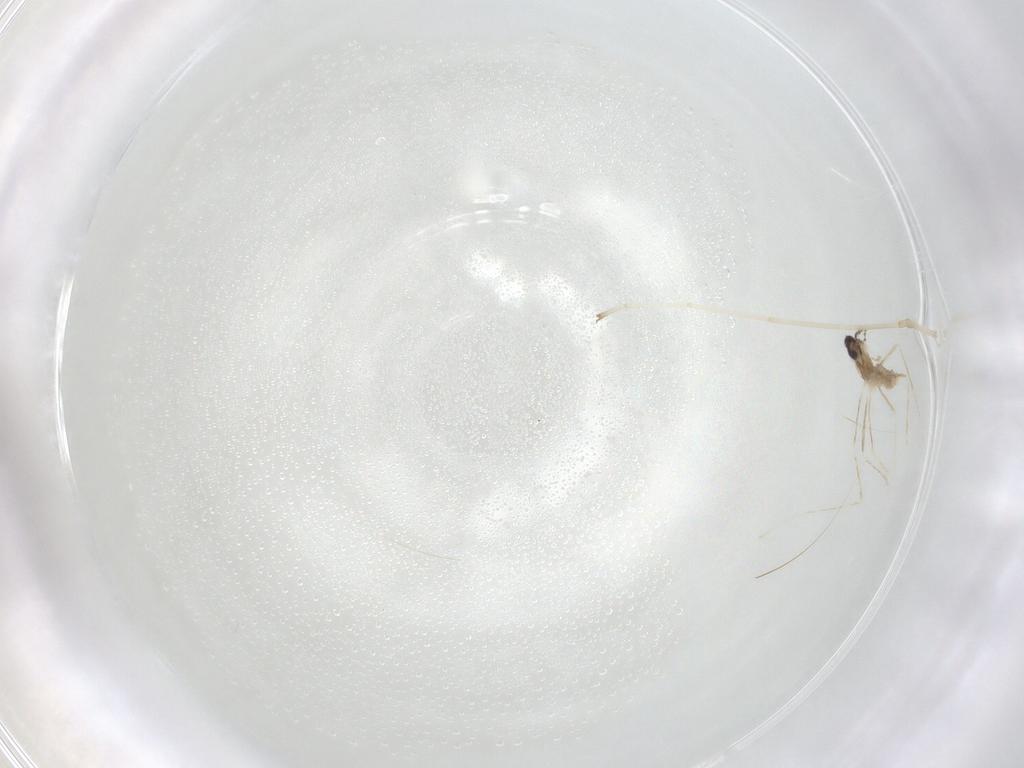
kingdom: Animalia
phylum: Arthropoda
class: Insecta
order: Diptera
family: Cecidomyiidae
